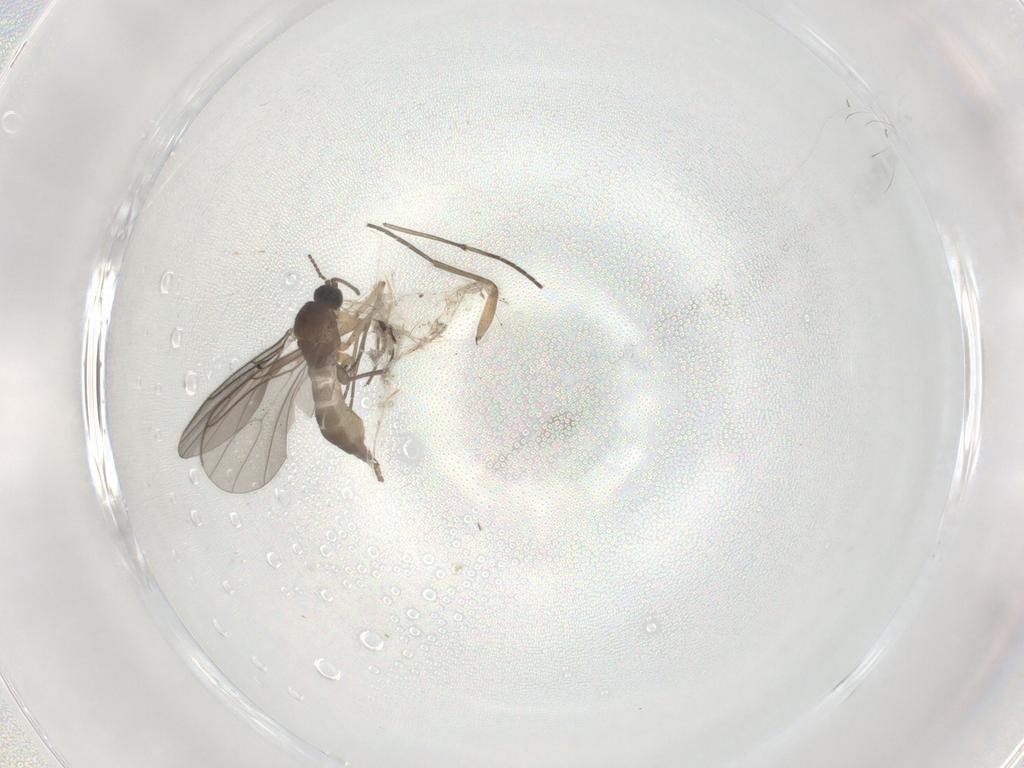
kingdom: Animalia
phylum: Arthropoda
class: Insecta
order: Diptera
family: Sciaridae
